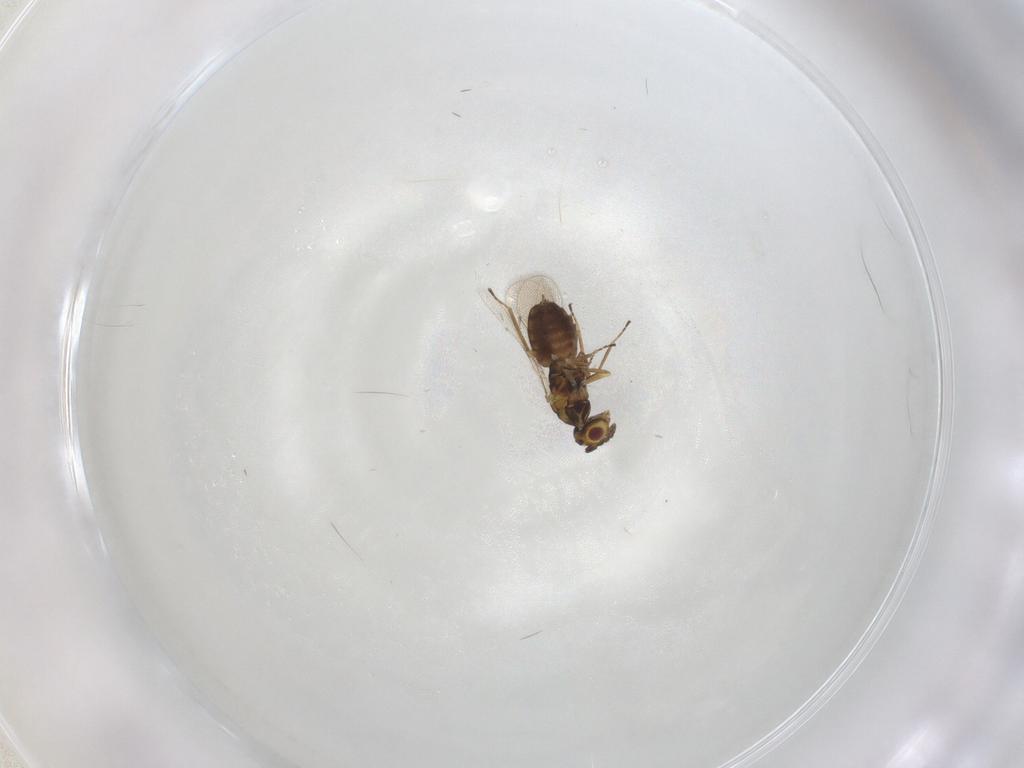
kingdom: Animalia
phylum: Arthropoda
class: Insecta
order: Hymenoptera
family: Eulophidae
